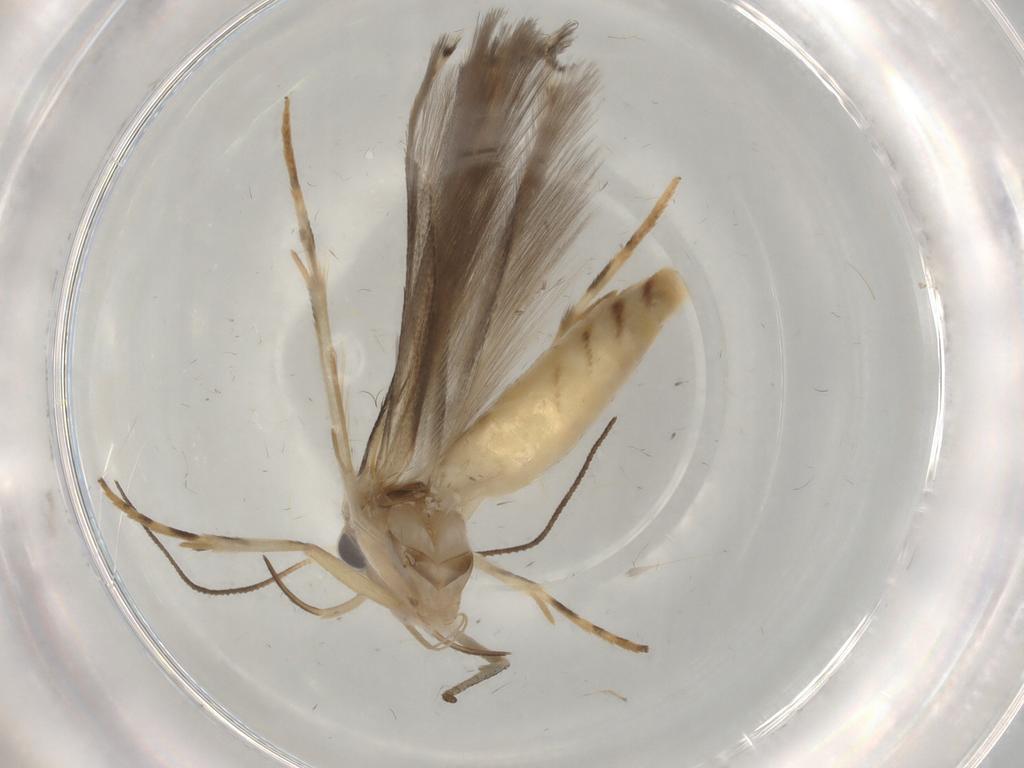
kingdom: Animalia
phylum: Arthropoda
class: Insecta
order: Lepidoptera
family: Gelechiidae
